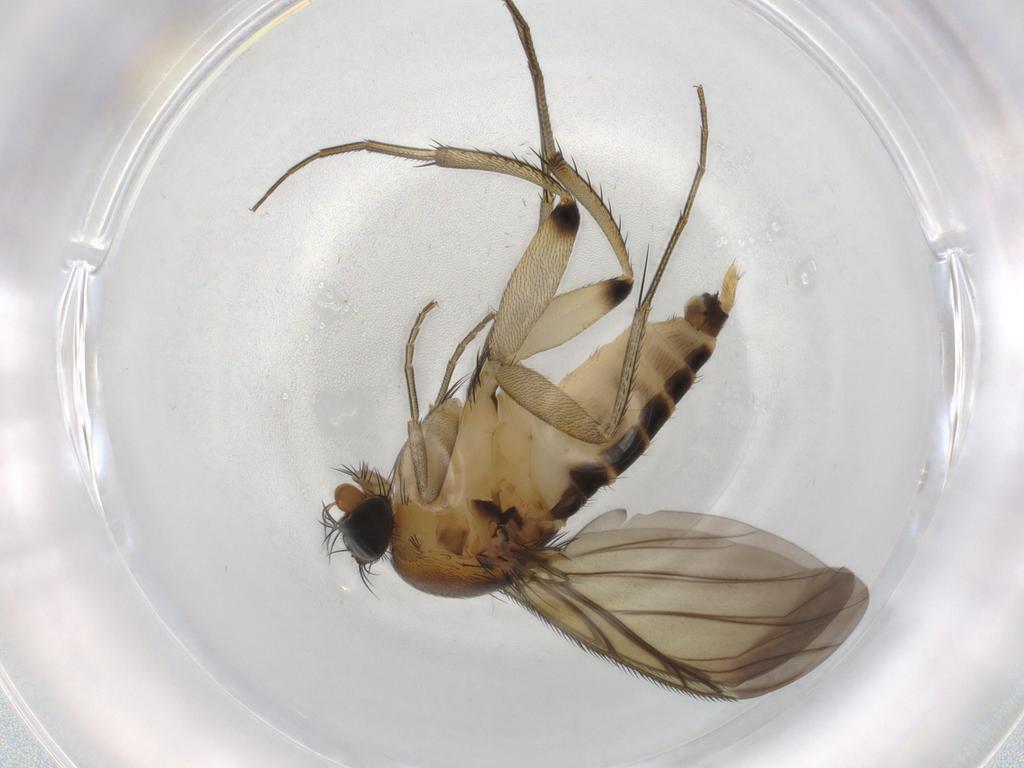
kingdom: Animalia
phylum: Arthropoda
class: Insecta
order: Diptera
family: Phoridae
